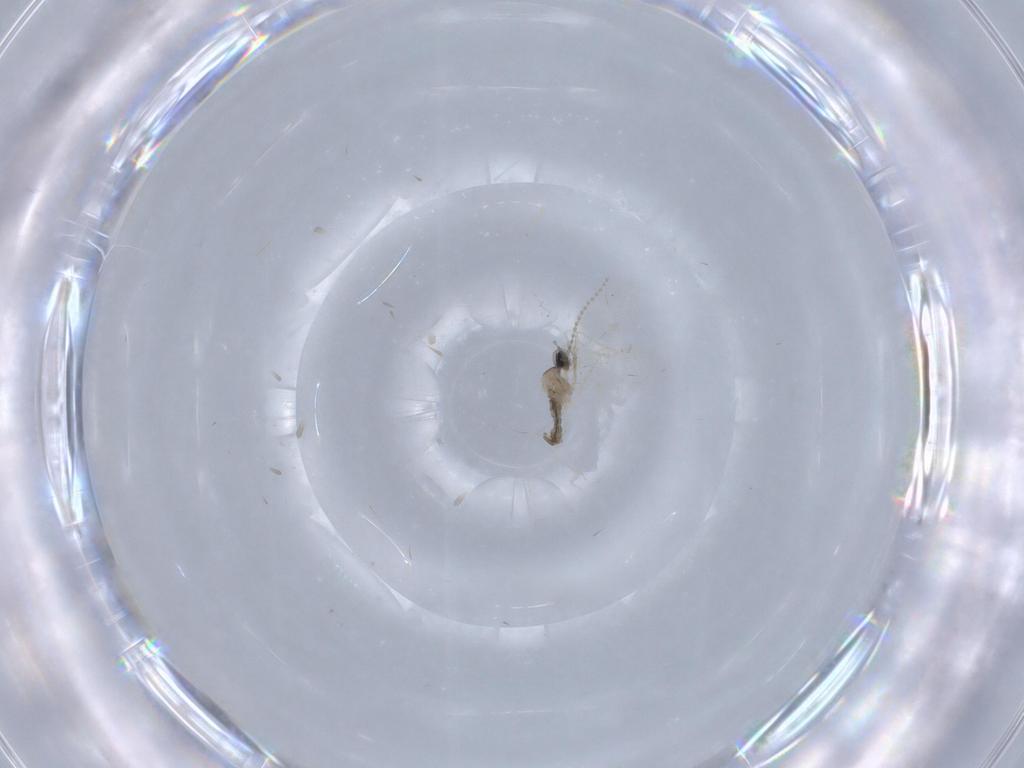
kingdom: Animalia
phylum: Arthropoda
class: Insecta
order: Diptera
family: Cecidomyiidae
